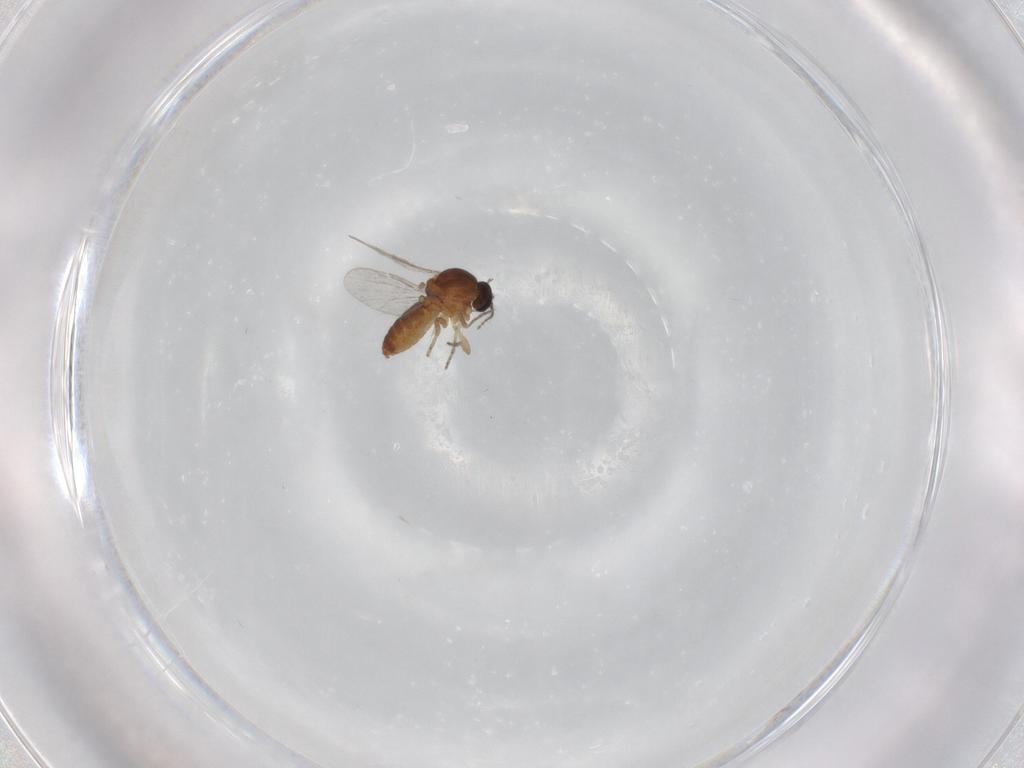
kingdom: Animalia
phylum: Arthropoda
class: Insecta
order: Diptera
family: Ceratopogonidae
